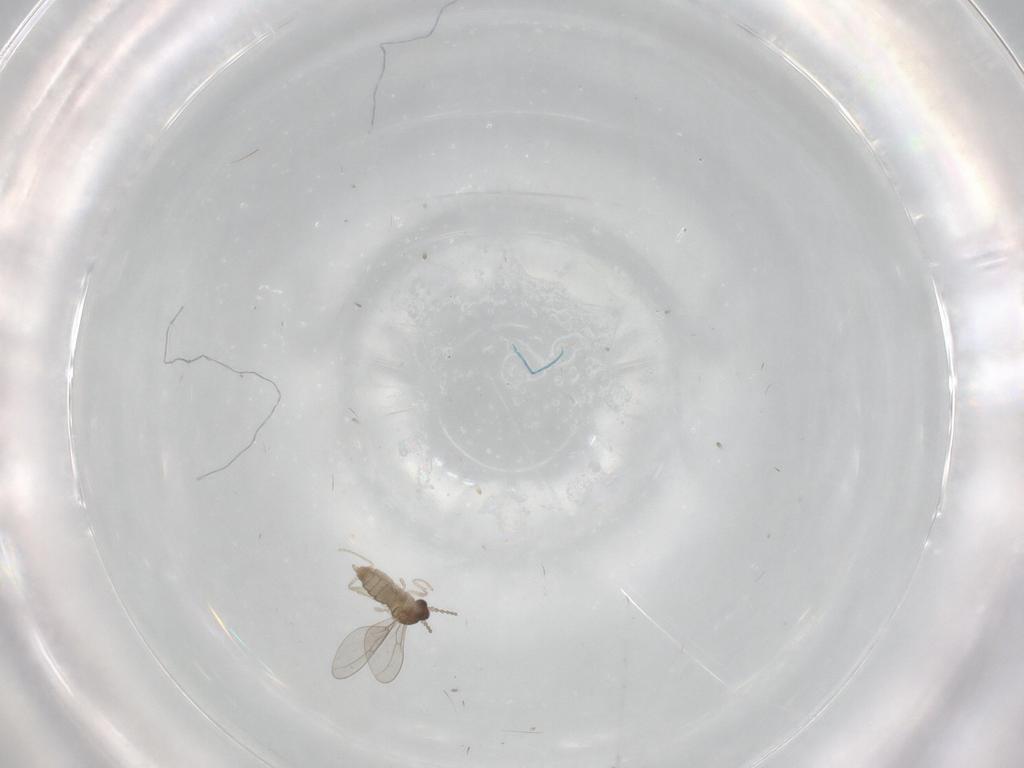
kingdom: Animalia
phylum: Arthropoda
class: Insecta
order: Diptera
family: Cecidomyiidae
